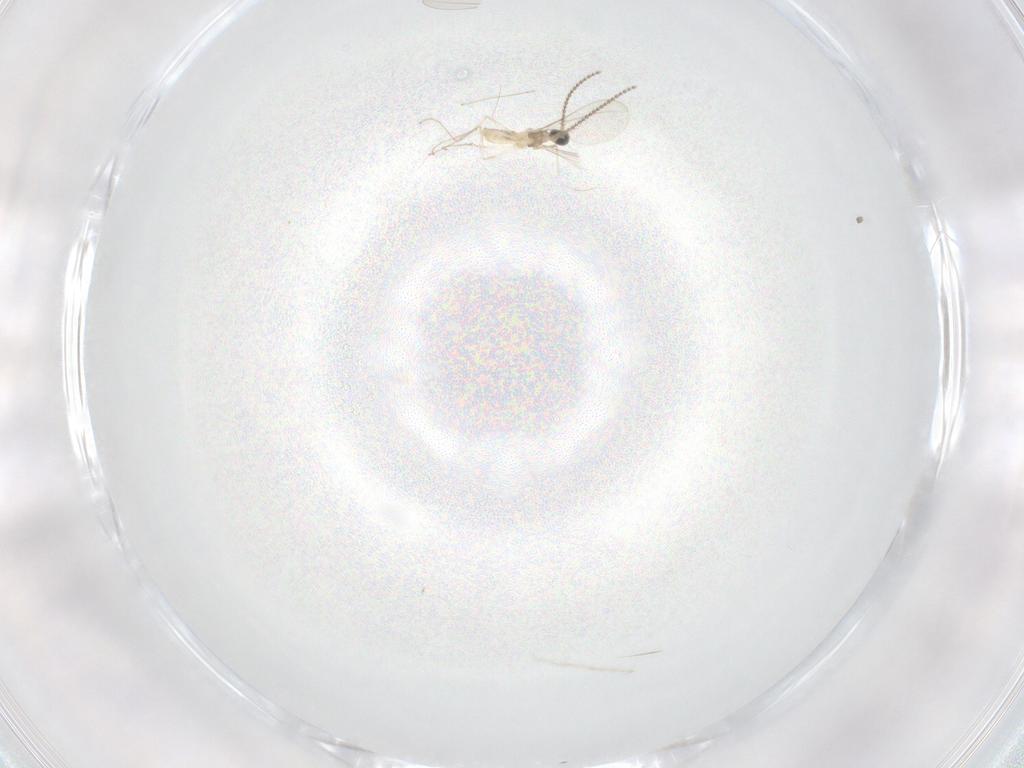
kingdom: Animalia
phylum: Arthropoda
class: Insecta
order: Diptera
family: Cecidomyiidae
